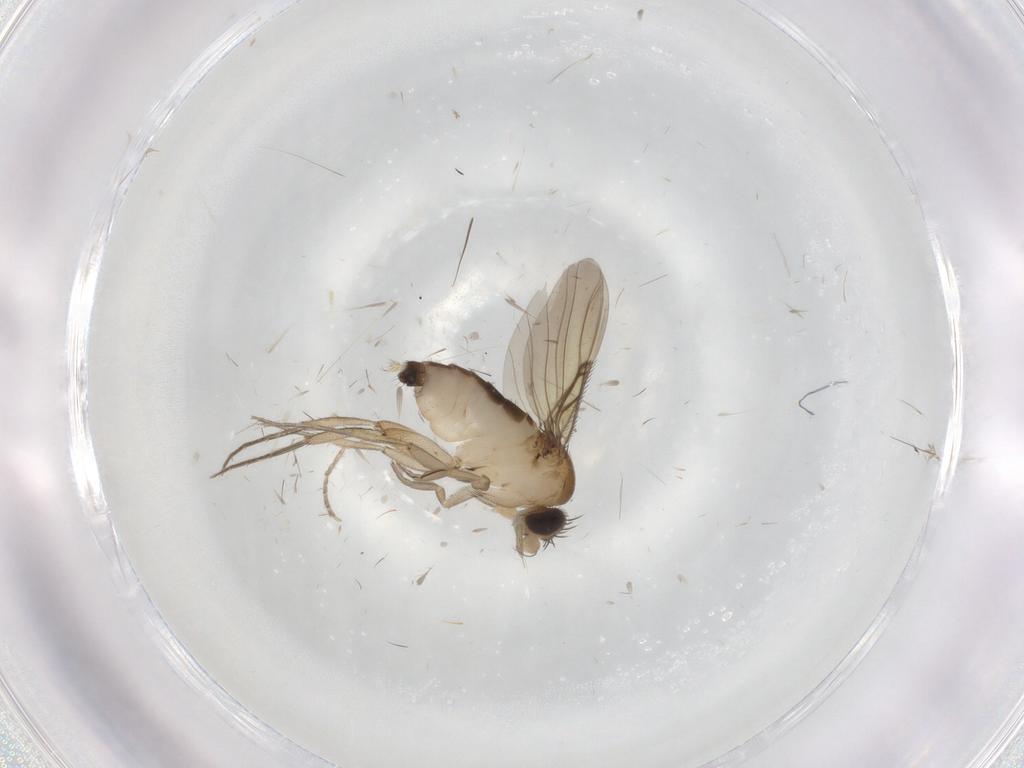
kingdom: Animalia
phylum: Arthropoda
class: Insecta
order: Diptera
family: Phoridae
